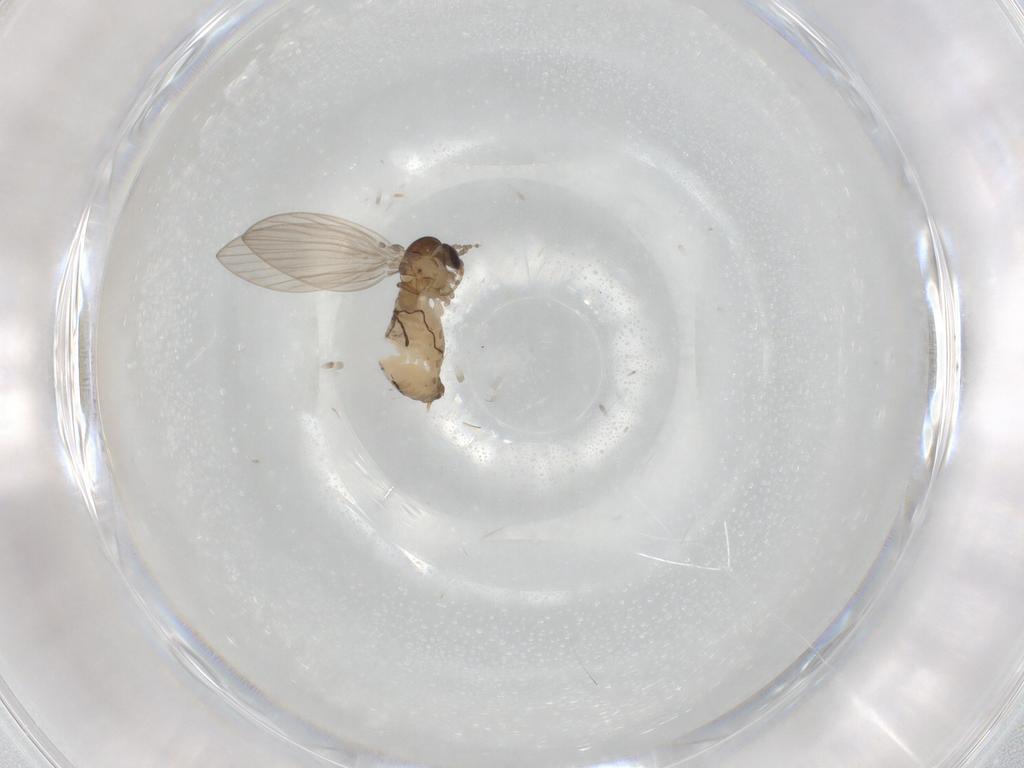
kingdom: Animalia
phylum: Arthropoda
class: Insecta
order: Diptera
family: Psychodidae
